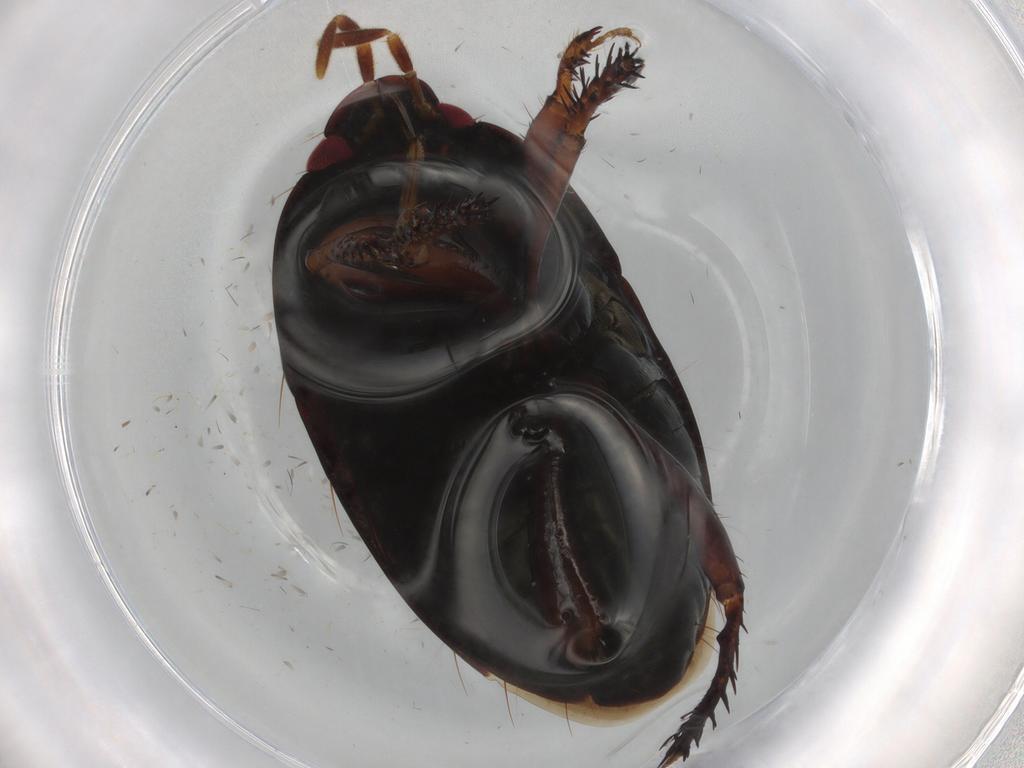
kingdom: Animalia
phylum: Arthropoda
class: Insecta
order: Hemiptera
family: Cydnidae
